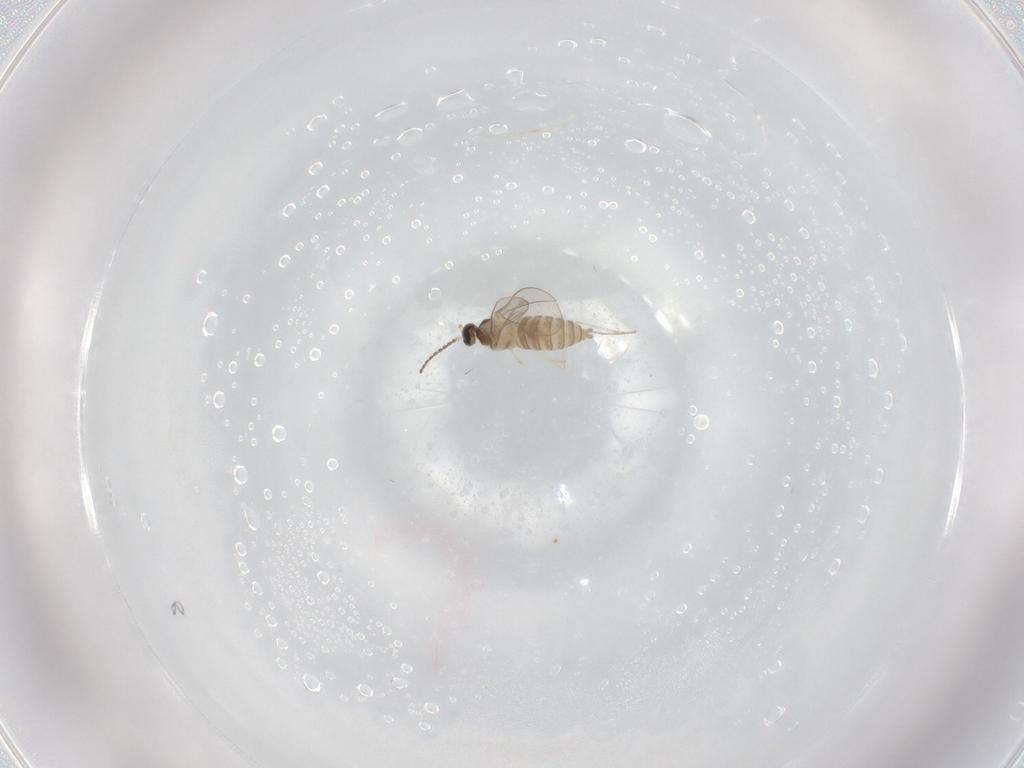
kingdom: Animalia
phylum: Arthropoda
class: Insecta
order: Diptera
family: Cecidomyiidae
